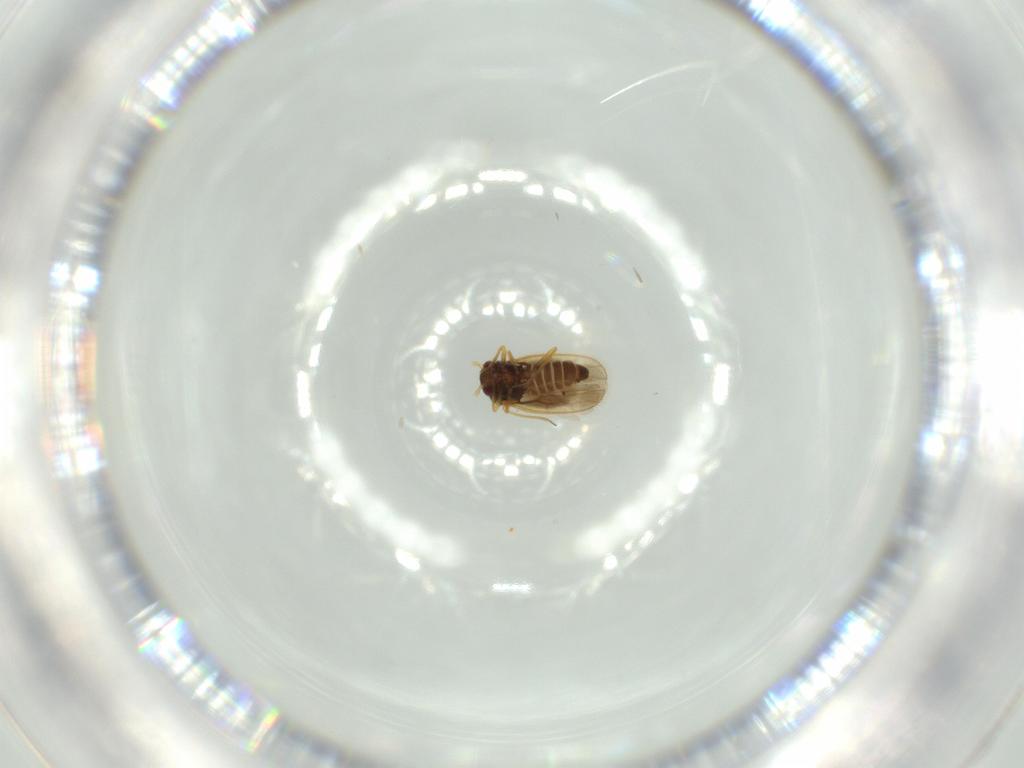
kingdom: Animalia
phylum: Arthropoda
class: Insecta
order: Hemiptera
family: Schizopteridae
